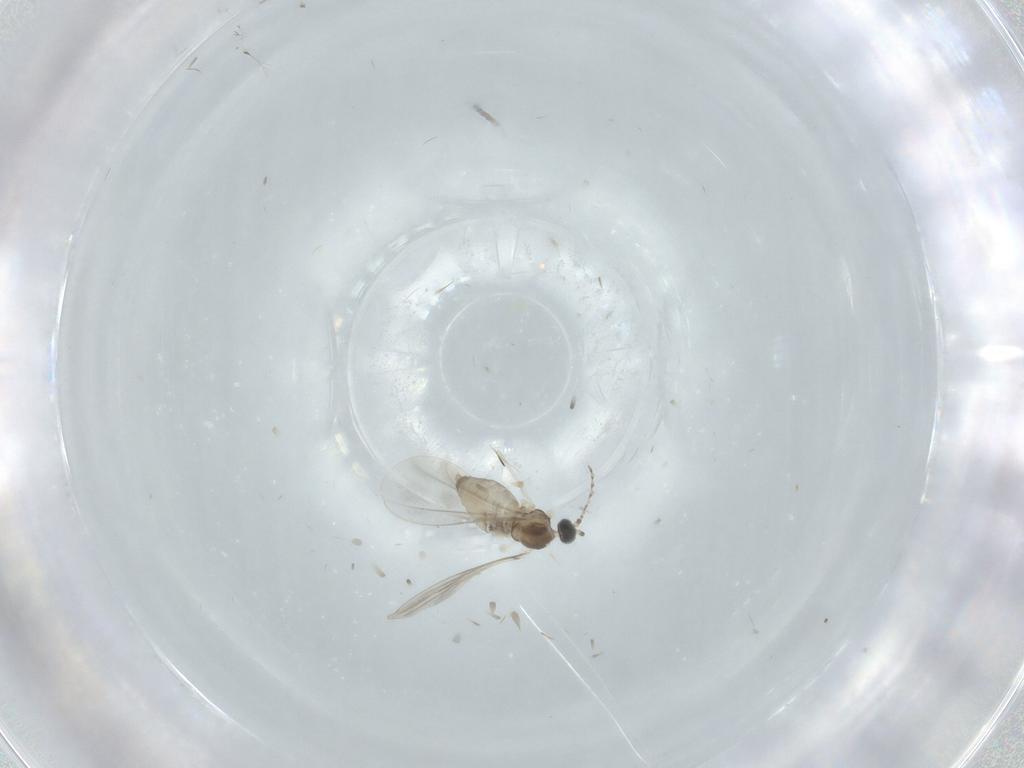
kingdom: Animalia
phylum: Arthropoda
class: Insecta
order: Diptera
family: Cecidomyiidae
